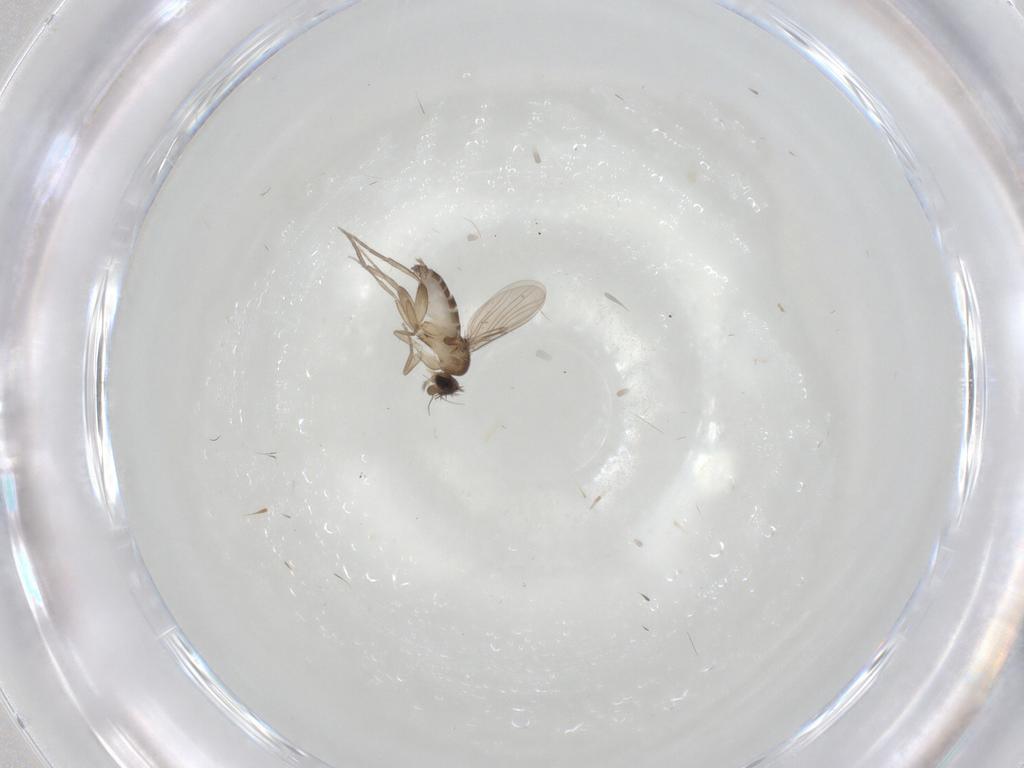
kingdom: Animalia
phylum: Arthropoda
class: Insecta
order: Diptera
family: Phoridae
